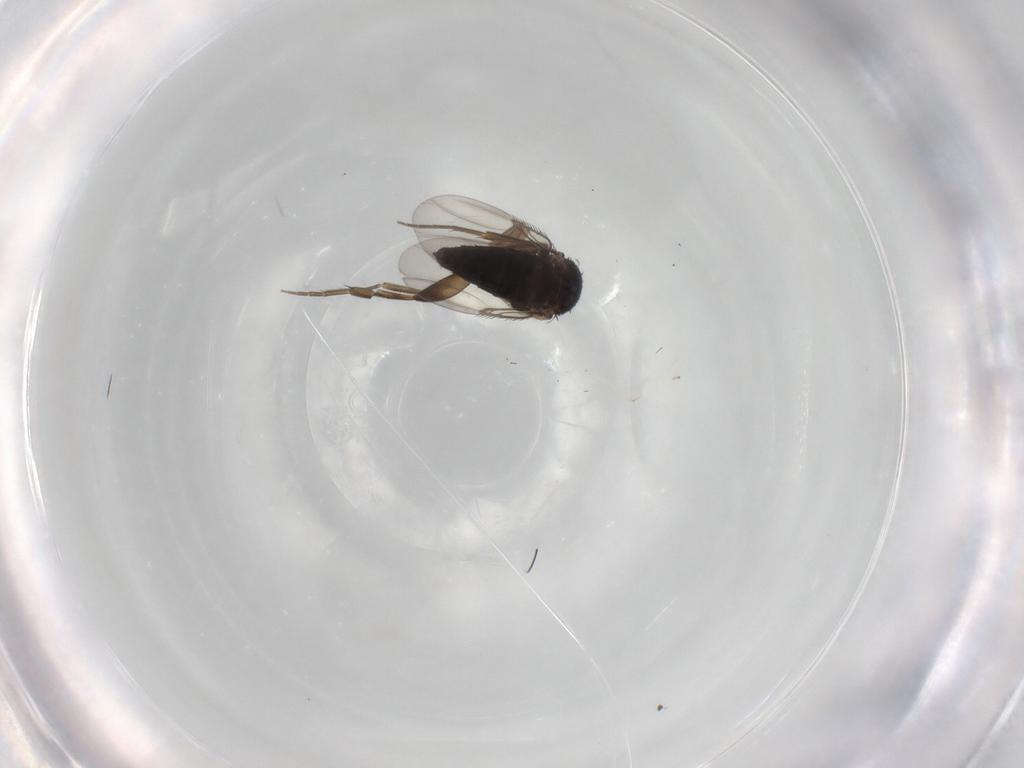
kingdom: Animalia
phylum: Arthropoda
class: Insecta
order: Diptera
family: Phoridae
